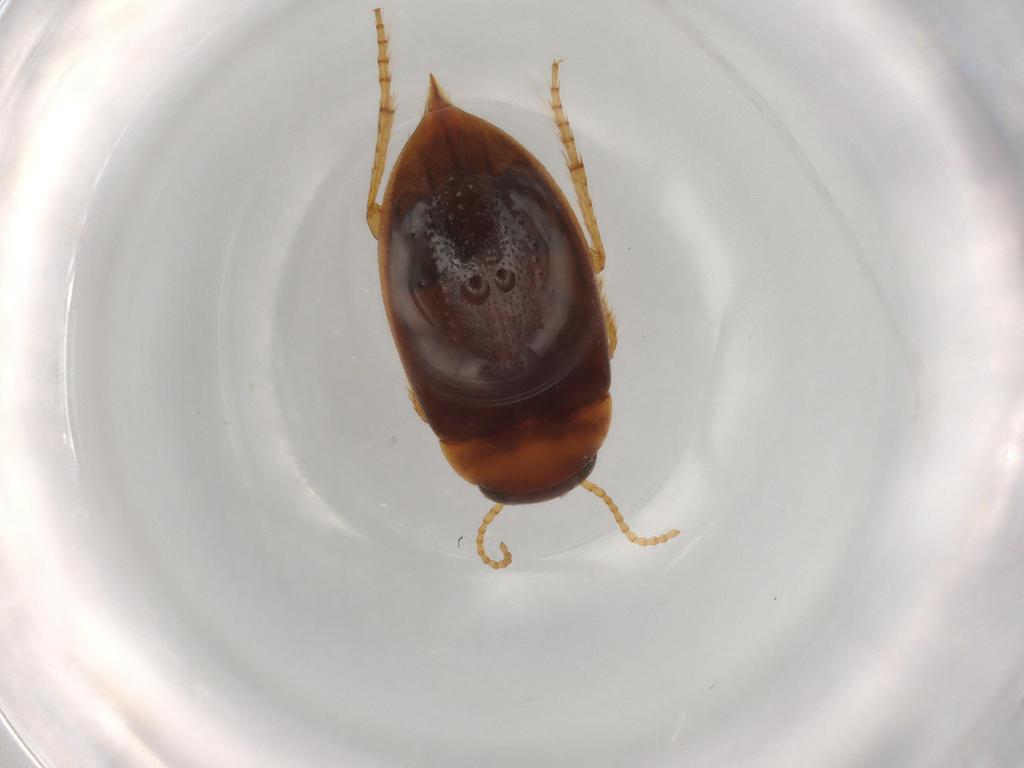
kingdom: Animalia
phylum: Arthropoda
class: Insecta
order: Coleoptera
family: Dytiscidae
